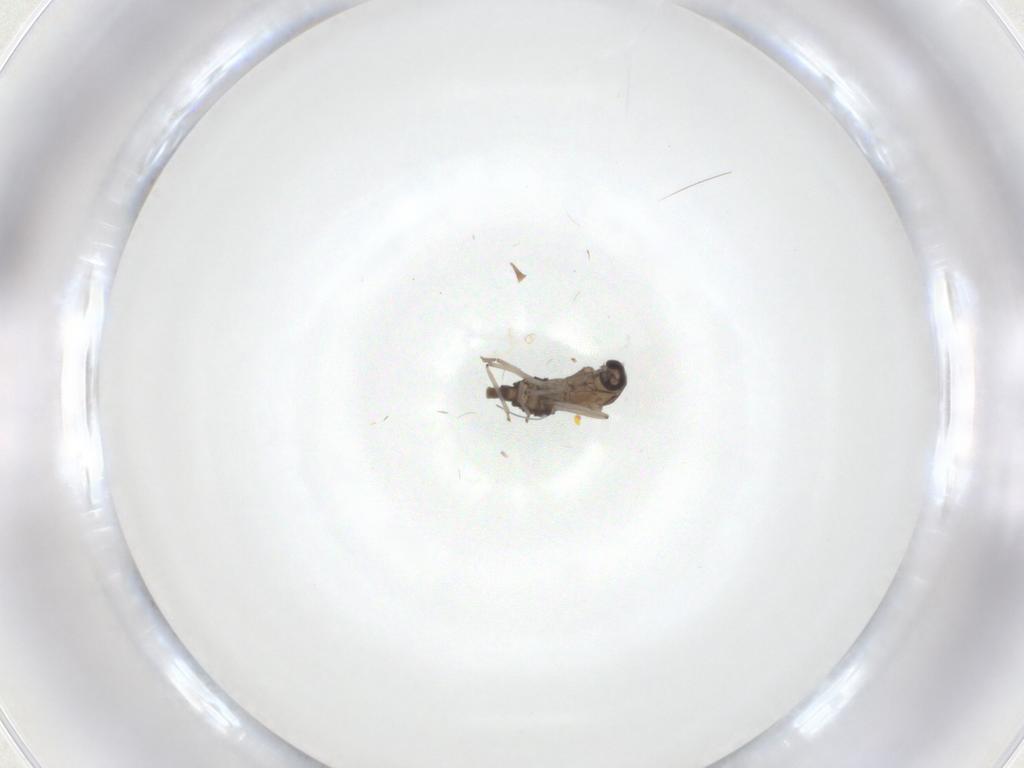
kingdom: Animalia
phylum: Arthropoda
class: Insecta
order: Diptera
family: Cecidomyiidae
